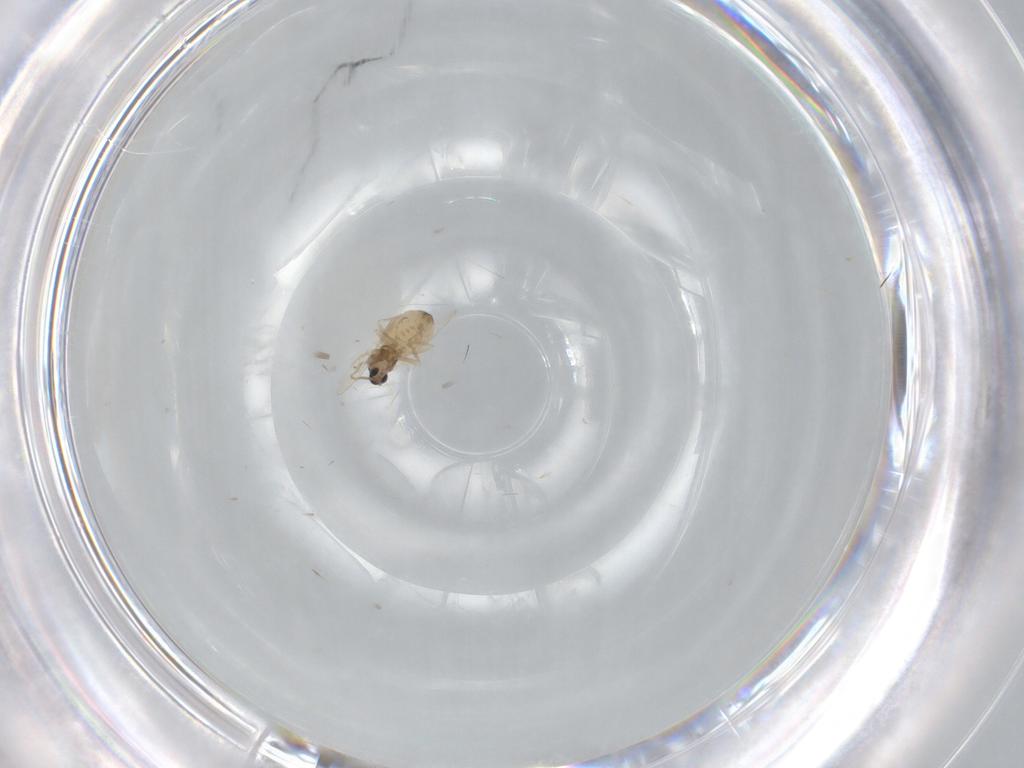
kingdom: Animalia
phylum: Arthropoda
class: Insecta
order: Diptera
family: Cecidomyiidae
